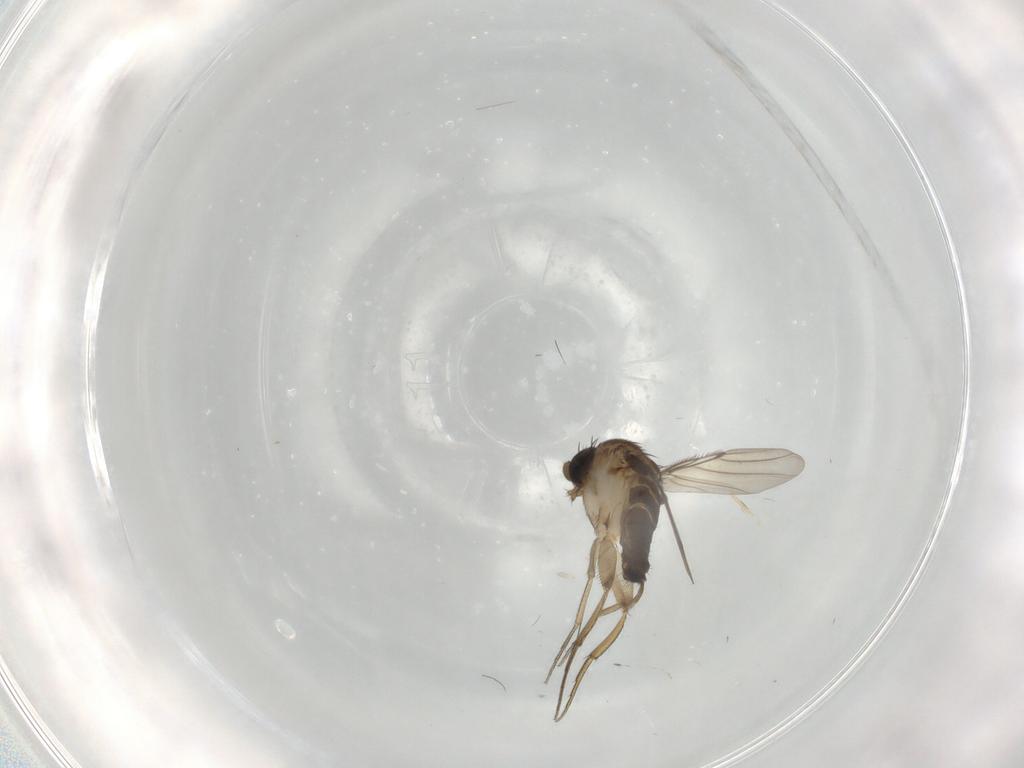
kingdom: Animalia
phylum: Arthropoda
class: Insecta
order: Diptera
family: Phoridae
